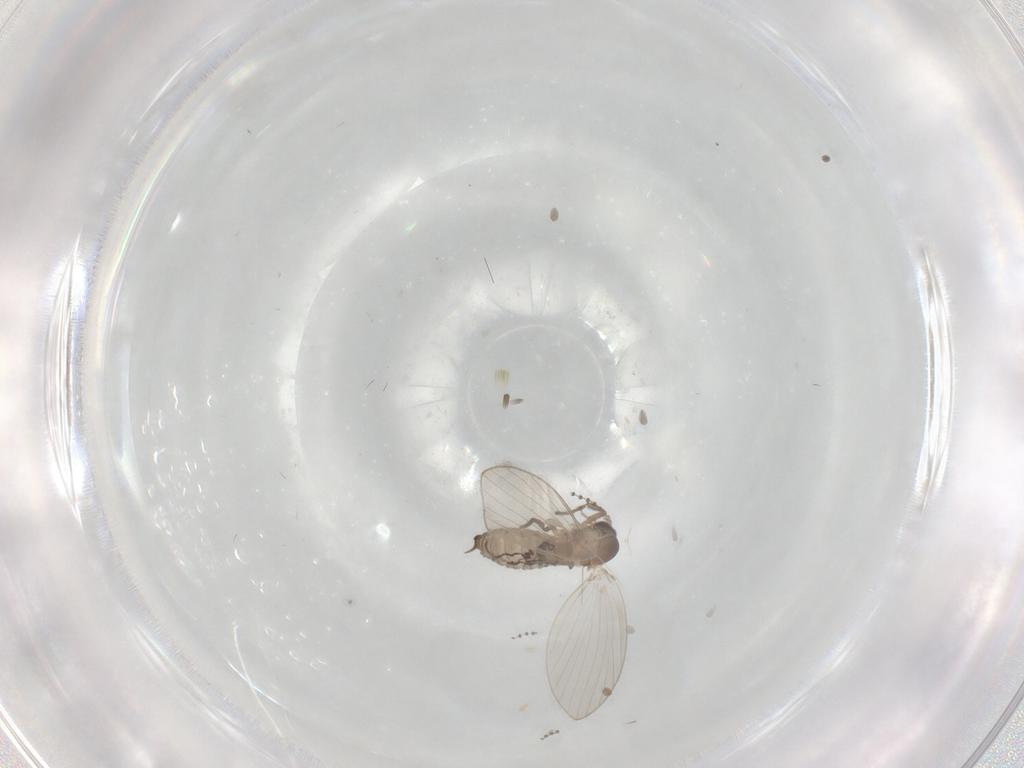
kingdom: Animalia
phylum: Arthropoda
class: Insecta
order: Diptera
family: Psychodidae
